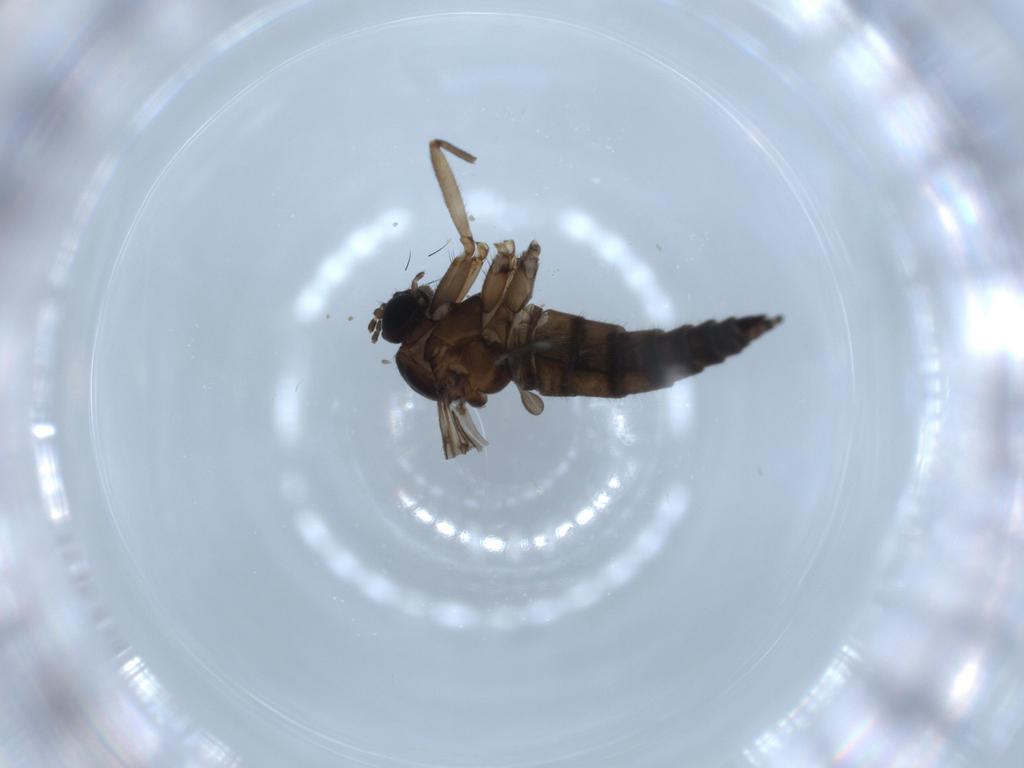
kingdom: Animalia
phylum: Arthropoda
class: Insecta
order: Diptera
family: Sciaridae
